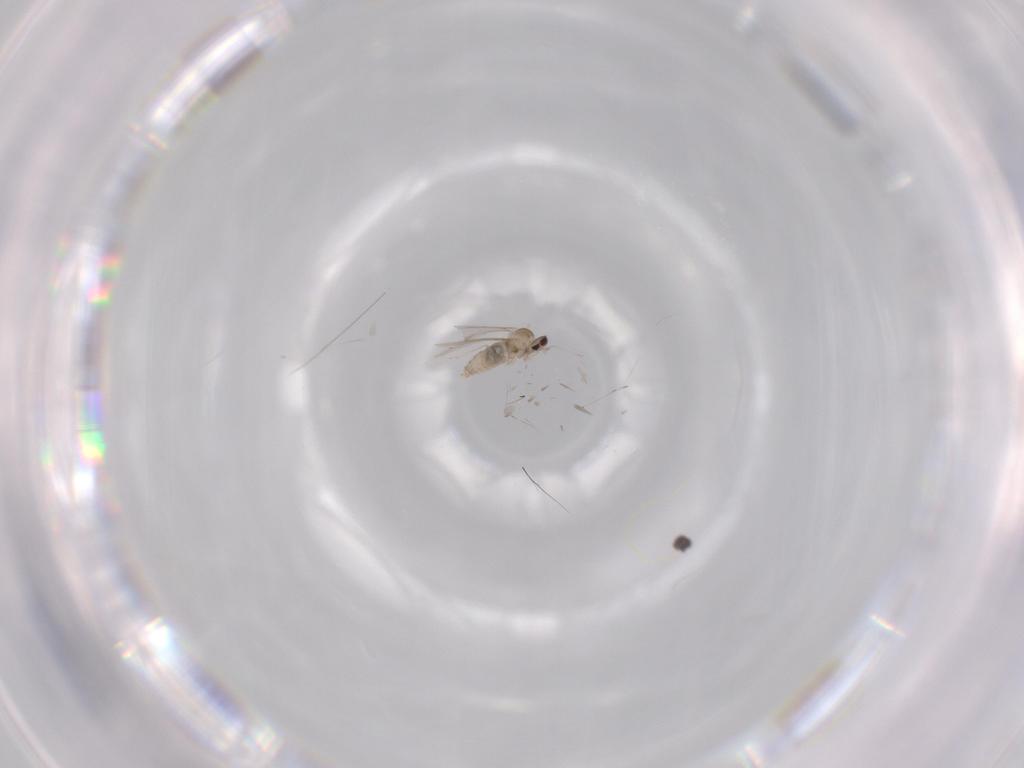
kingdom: Animalia
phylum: Arthropoda
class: Insecta
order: Diptera
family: Cecidomyiidae
